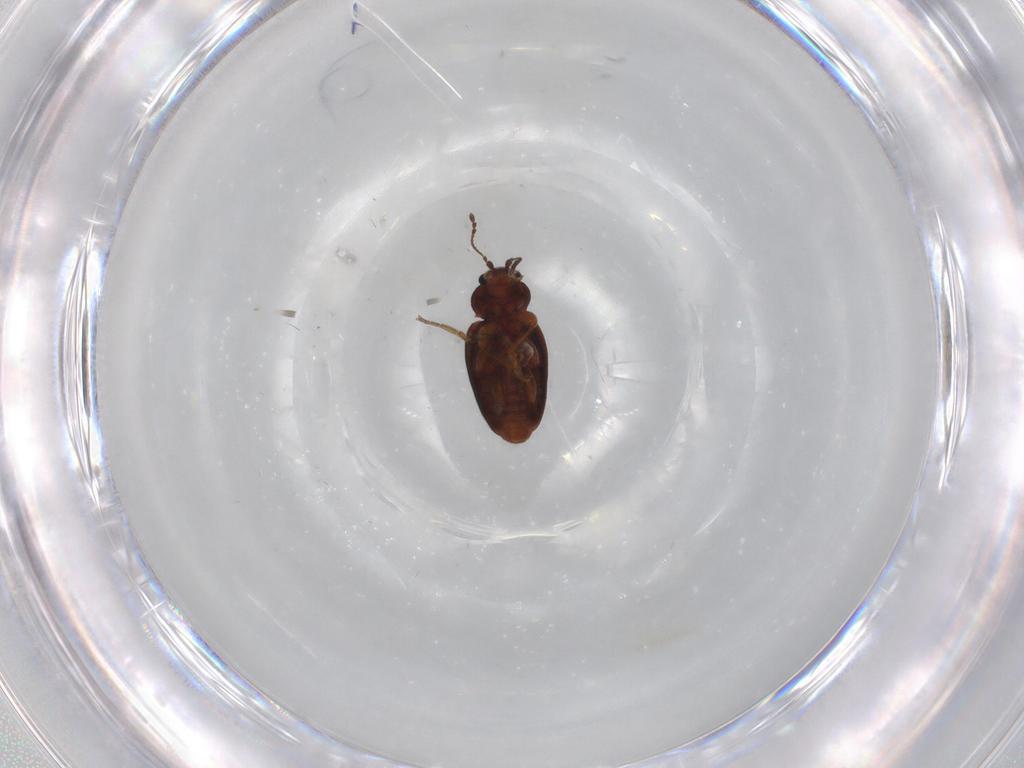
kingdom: Animalia
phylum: Arthropoda
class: Insecta
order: Coleoptera
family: Latridiidae
